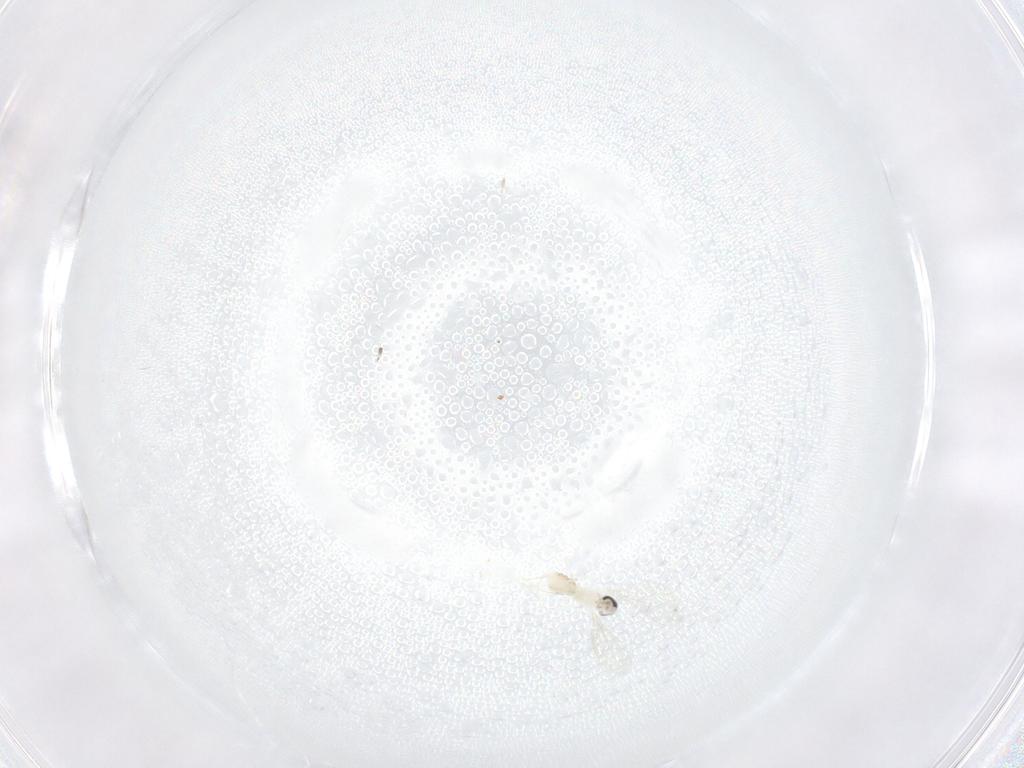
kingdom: Animalia
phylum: Arthropoda
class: Insecta
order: Diptera
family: Cecidomyiidae
